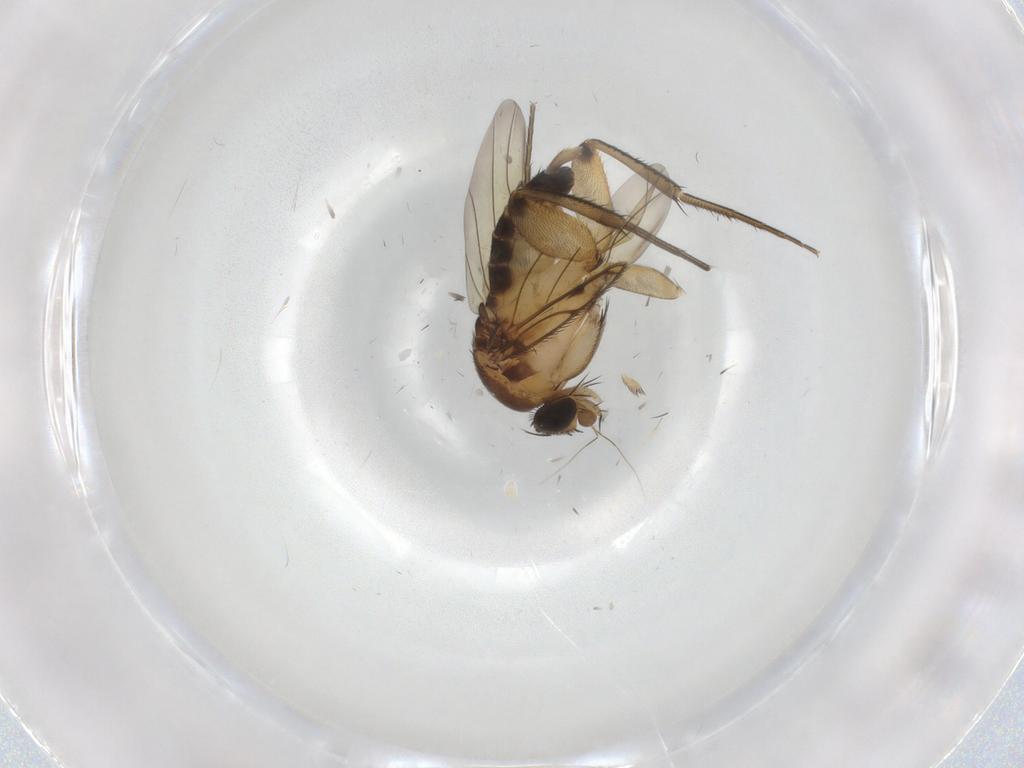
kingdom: Animalia
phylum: Arthropoda
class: Insecta
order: Diptera
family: Phoridae
